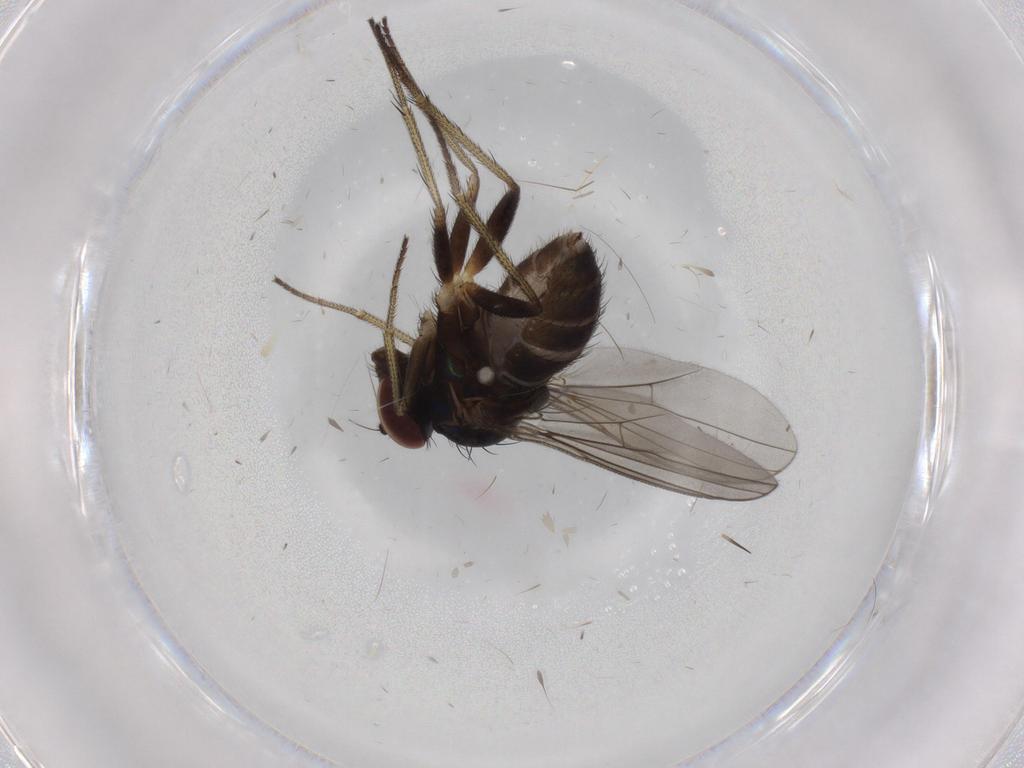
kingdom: Animalia
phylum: Arthropoda
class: Insecta
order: Diptera
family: Dolichopodidae
